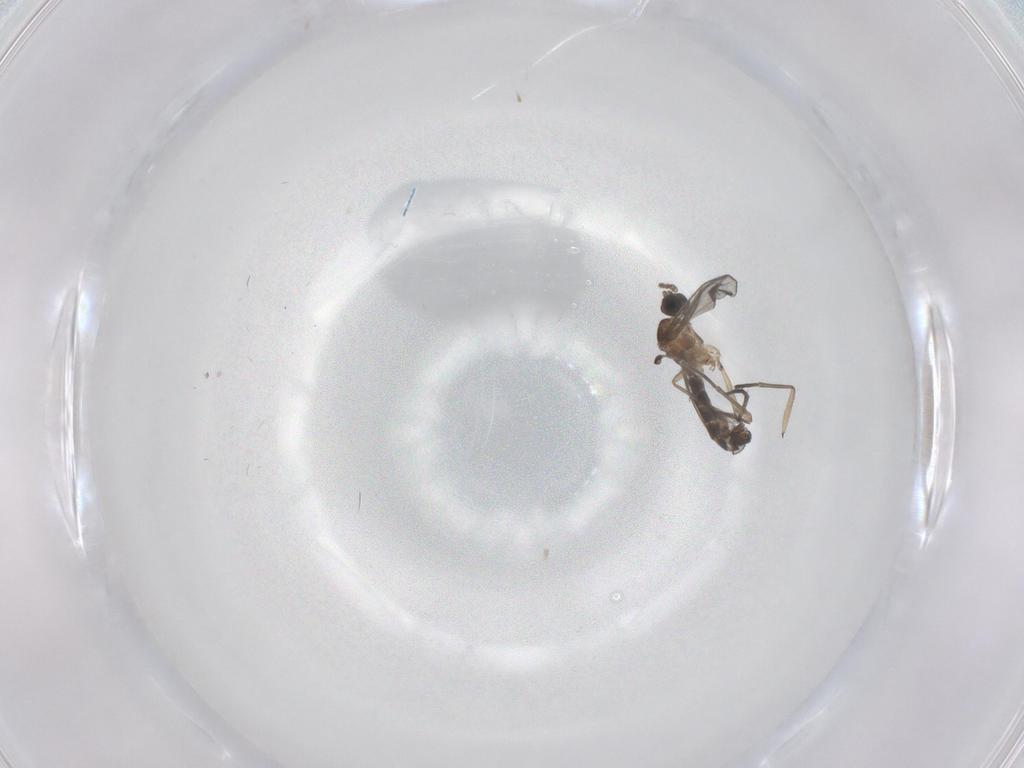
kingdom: Animalia
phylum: Arthropoda
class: Insecta
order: Diptera
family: Sciaridae
